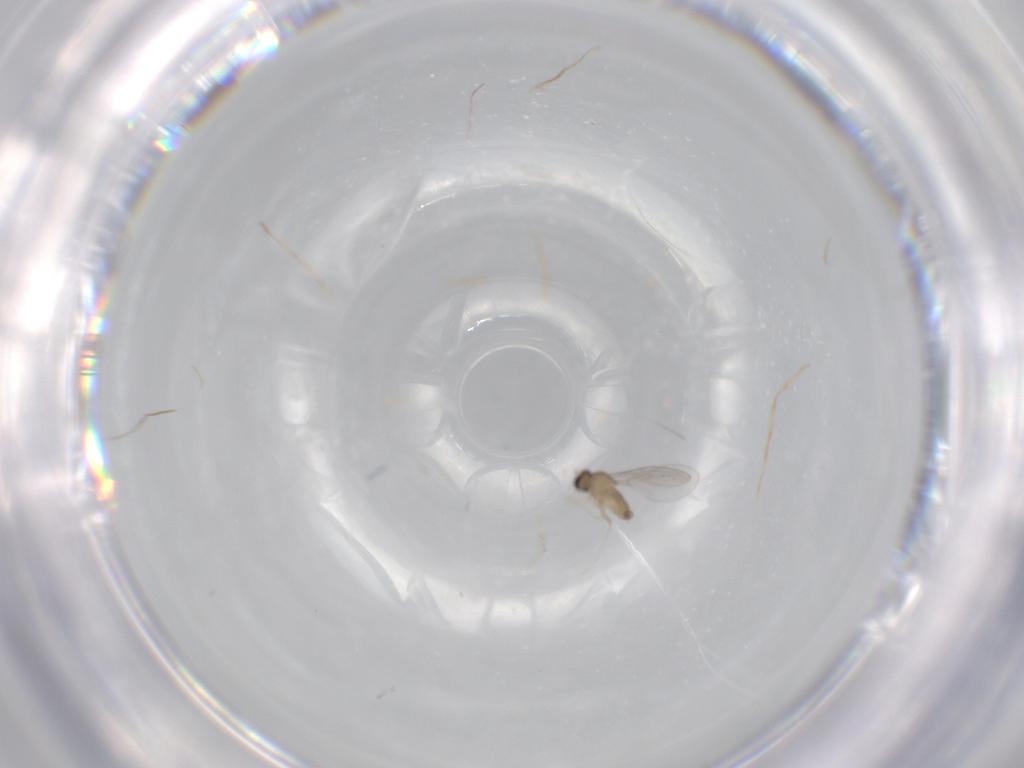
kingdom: Animalia
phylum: Arthropoda
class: Insecta
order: Diptera
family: Cecidomyiidae
